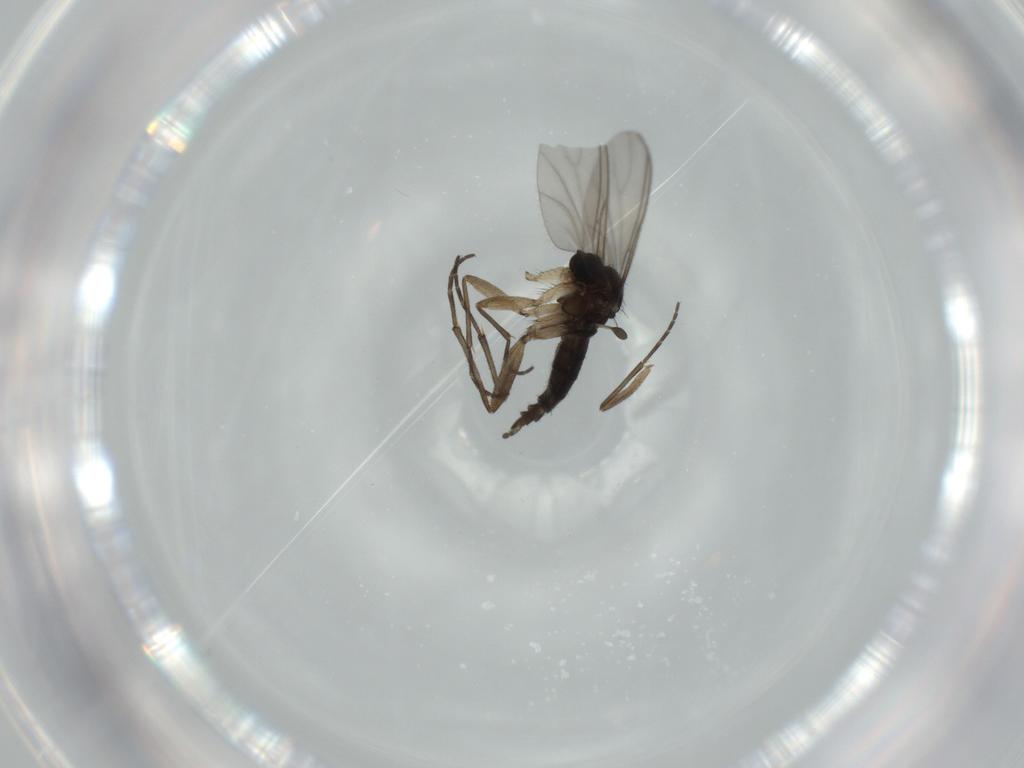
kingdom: Animalia
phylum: Arthropoda
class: Insecta
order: Diptera
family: Sciaridae
